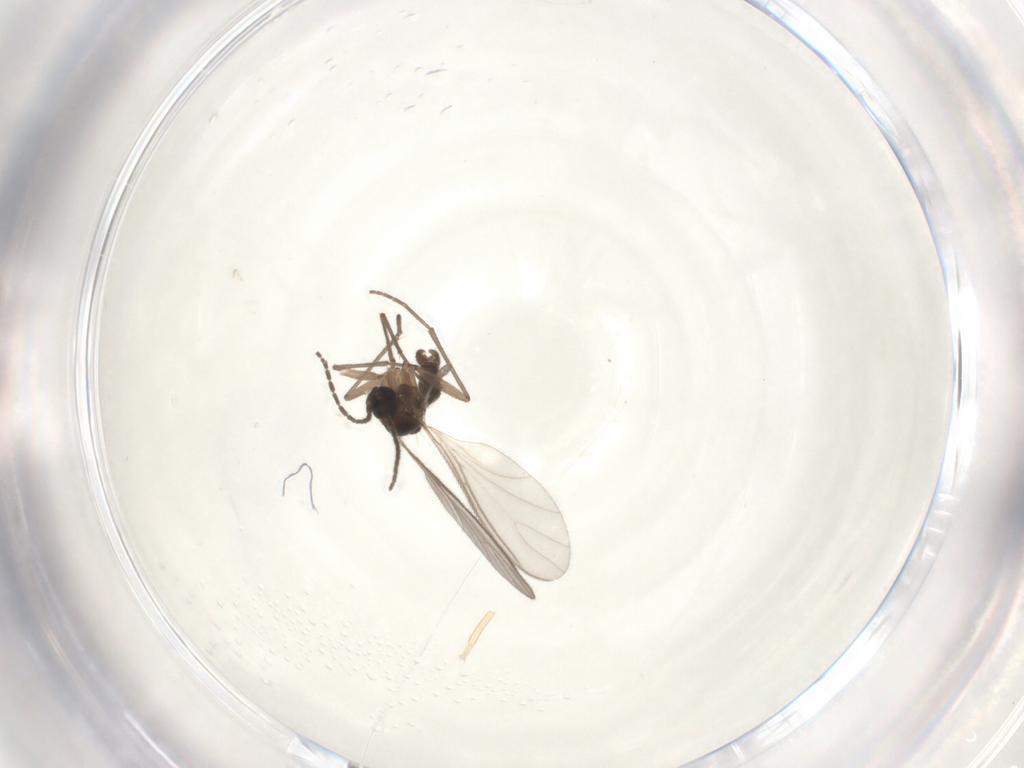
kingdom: Animalia
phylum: Arthropoda
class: Insecta
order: Diptera
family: Sciaridae
